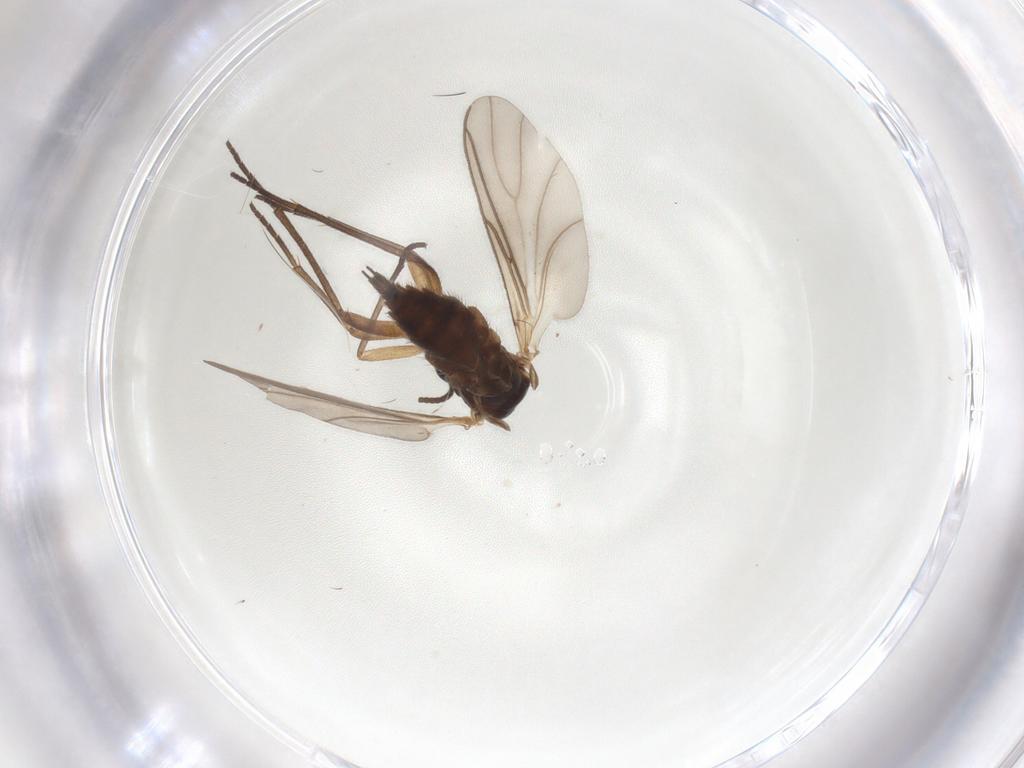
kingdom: Animalia
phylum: Arthropoda
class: Insecta
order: Diptera
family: Sciaridae
